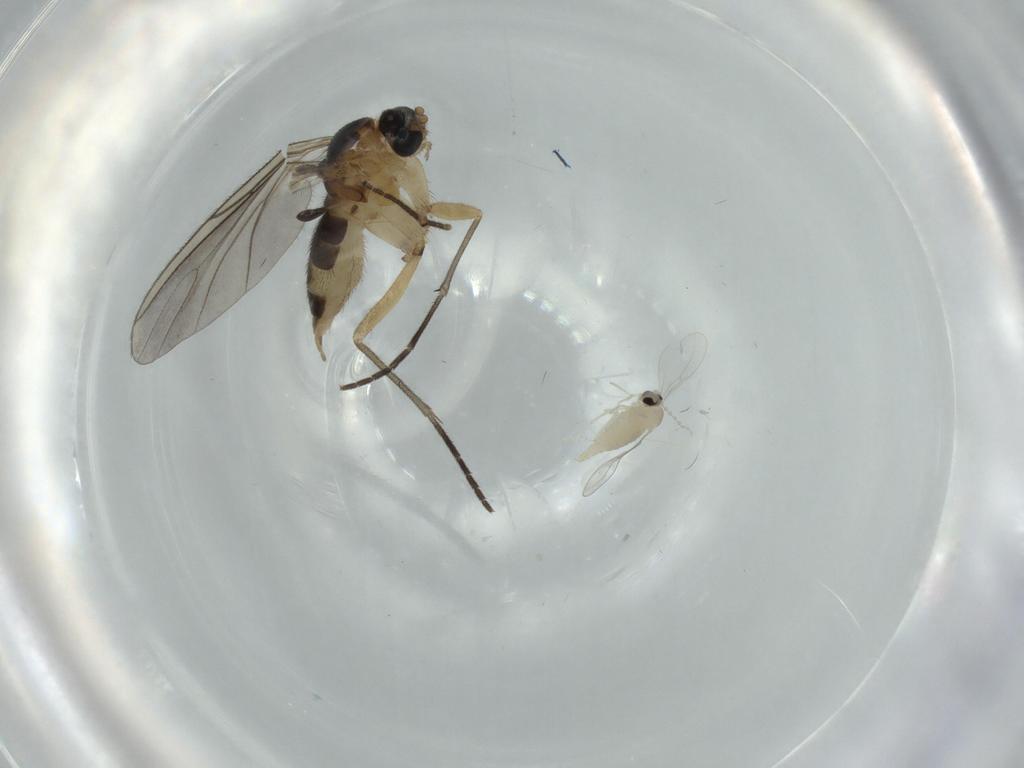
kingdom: Animalia
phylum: Arthropoda
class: Insecta
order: Diptera
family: Sciaridae
